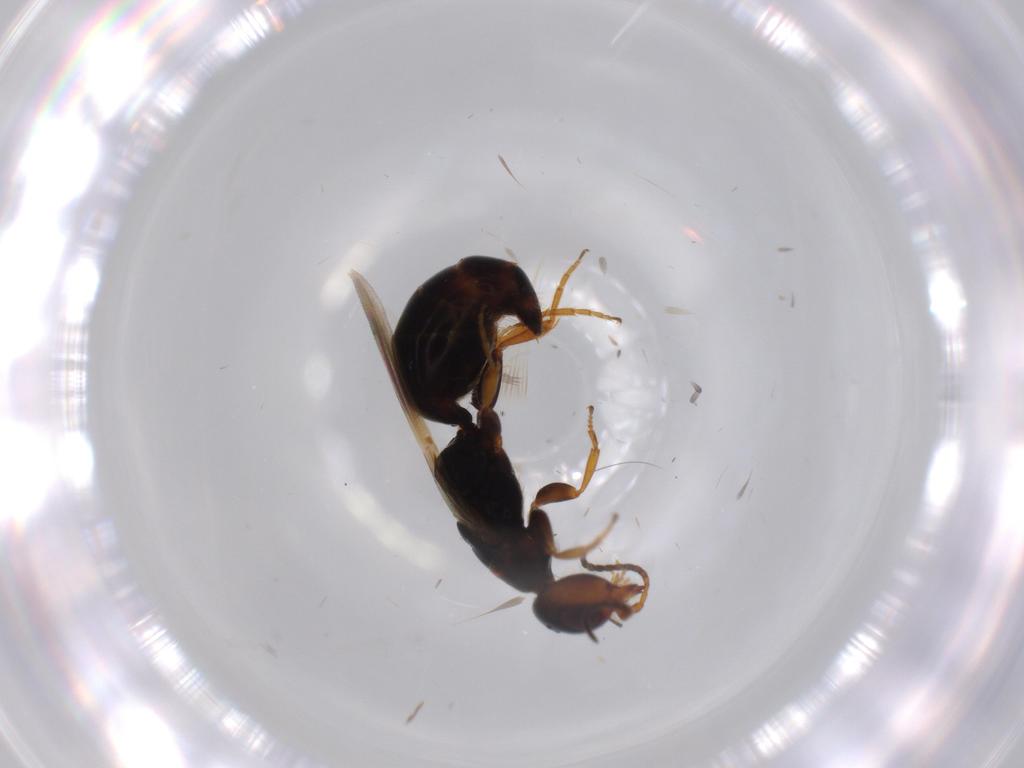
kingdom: Animalia
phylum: Arthropoda
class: Insecta
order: Hymenoptera
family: Bethylidae
